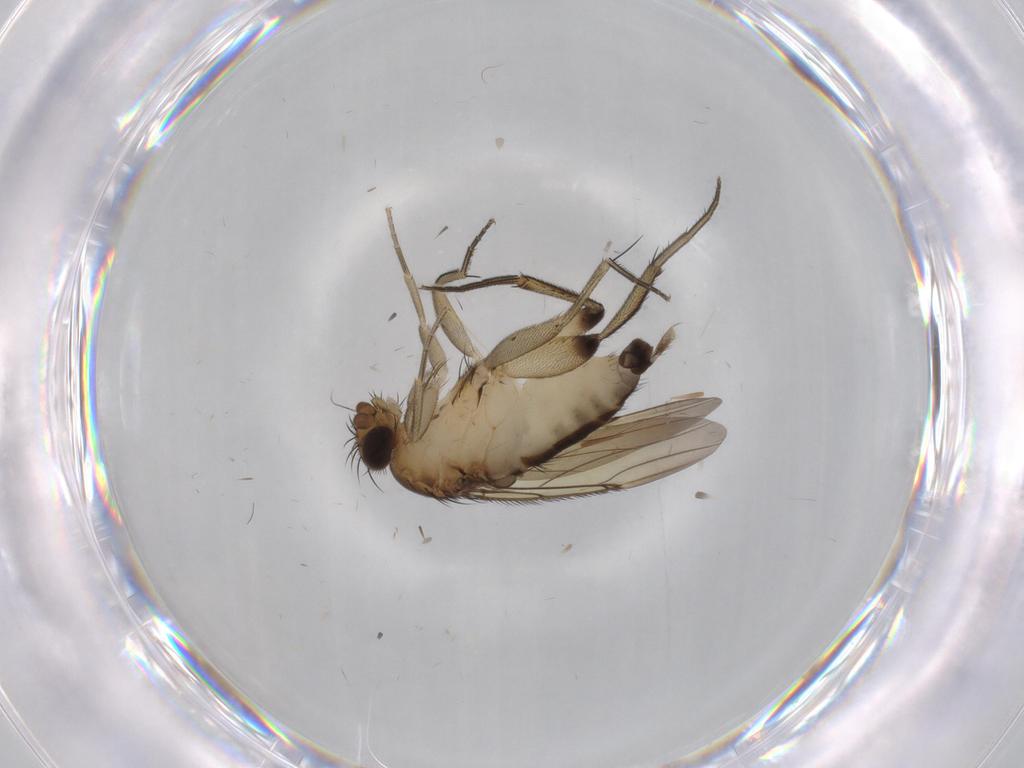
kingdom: Animalia
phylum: Arthropoda
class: Insecta
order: Diptera
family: Phoridae
